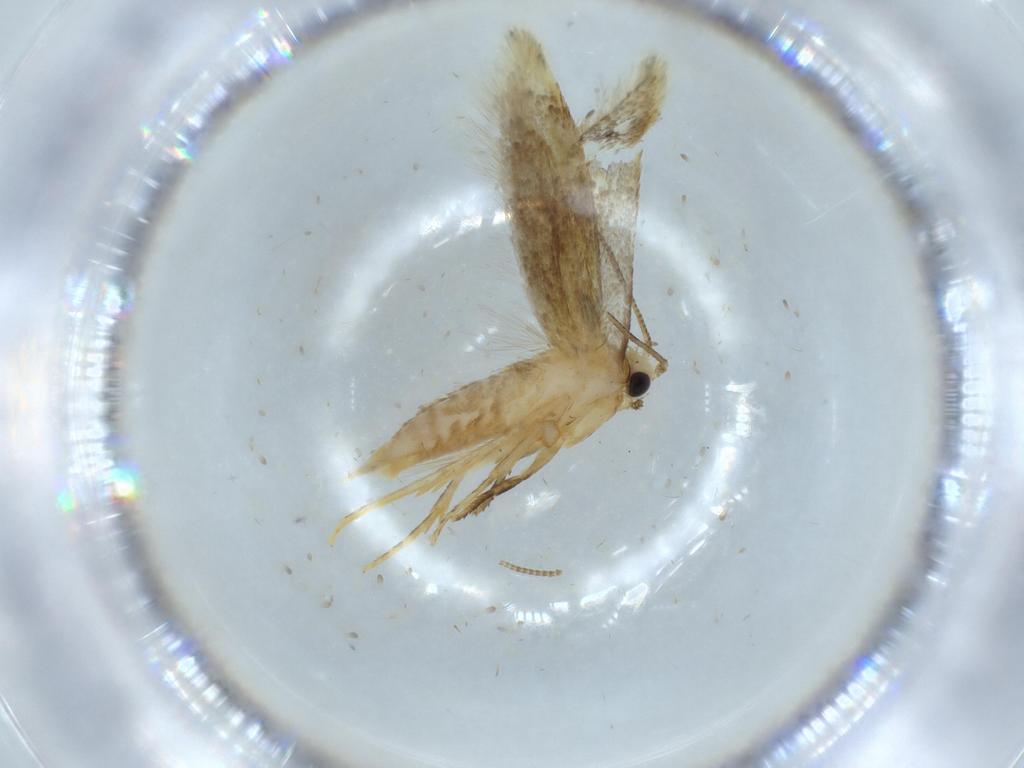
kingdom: Animalia
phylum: Arthropoda
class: Insecta
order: Lepidoptera
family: Tineidae
